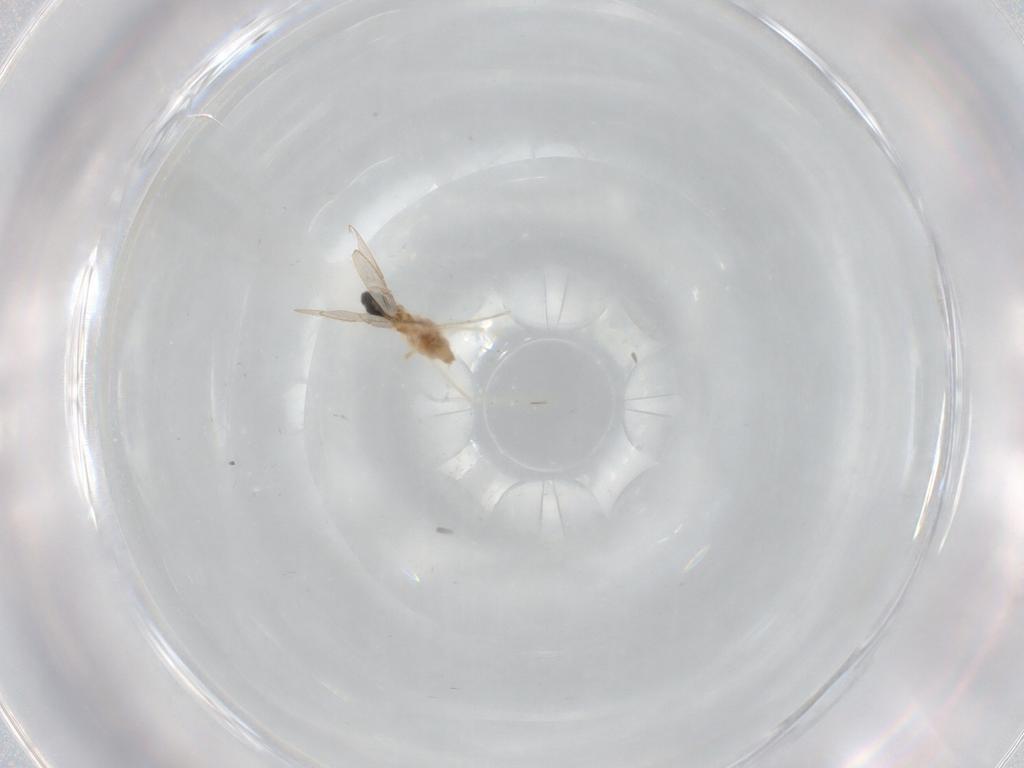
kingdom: Animalia
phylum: Arthropoda
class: Insecta
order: Diptera
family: Cecidomyiidae
